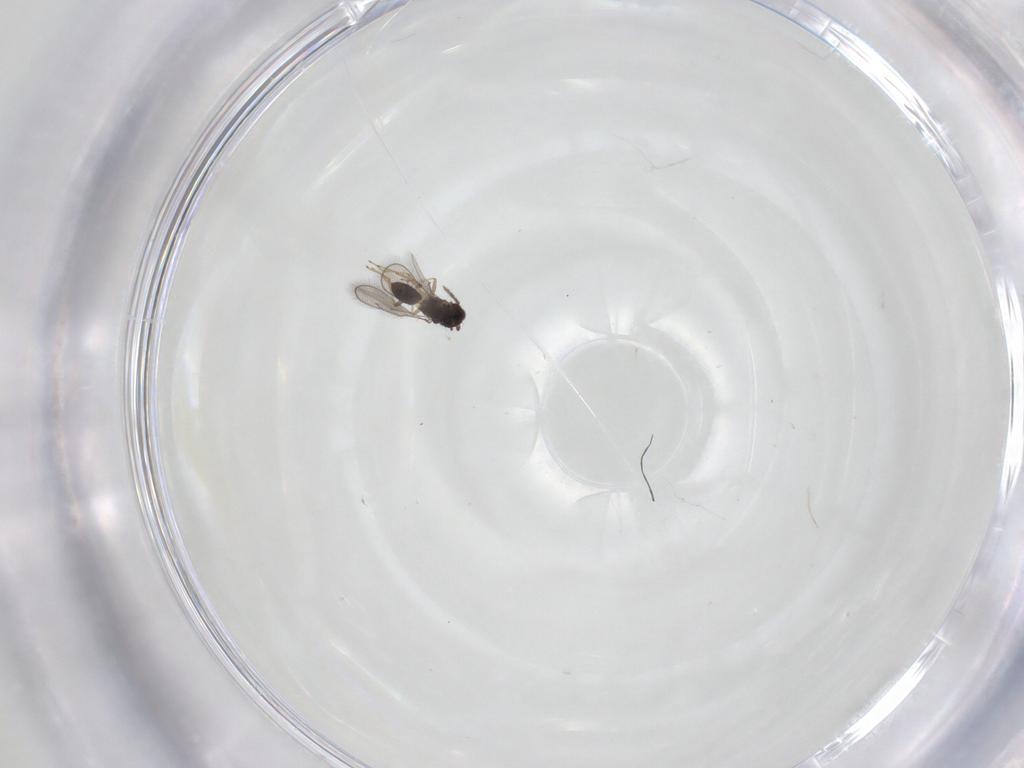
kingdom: Animalia
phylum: Arthropoda
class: Insecta
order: Hymenoptera
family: Eulophidae
